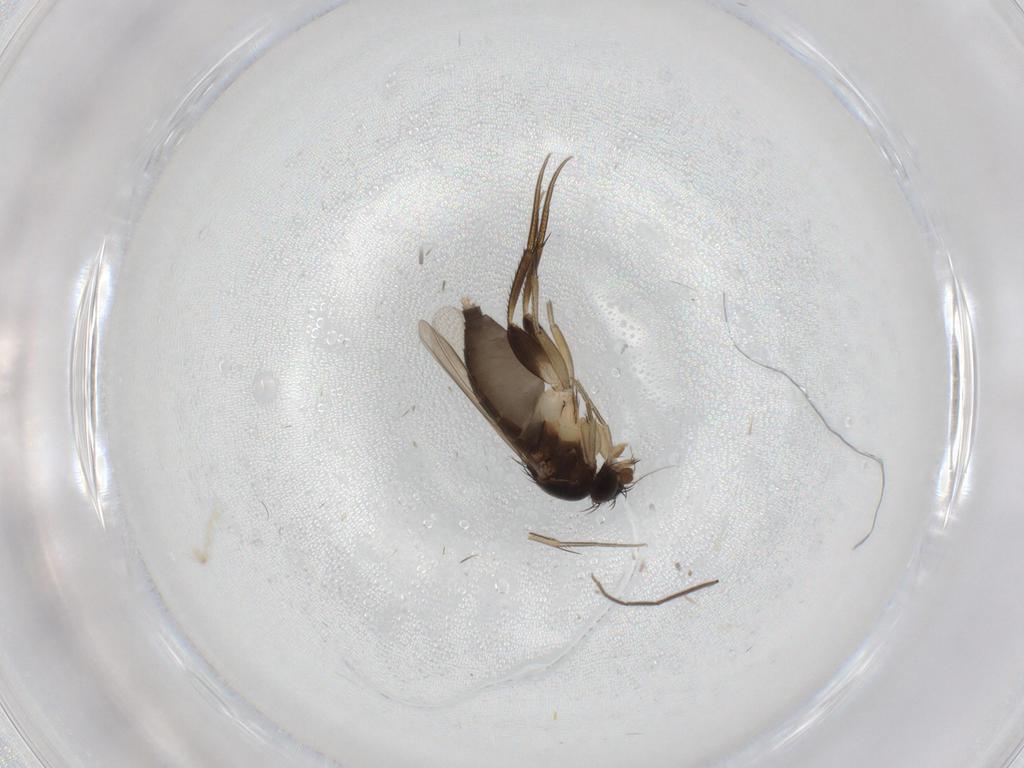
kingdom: Animalia
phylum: Arthropoda
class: Insecta
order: Diptera
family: Phoridae
